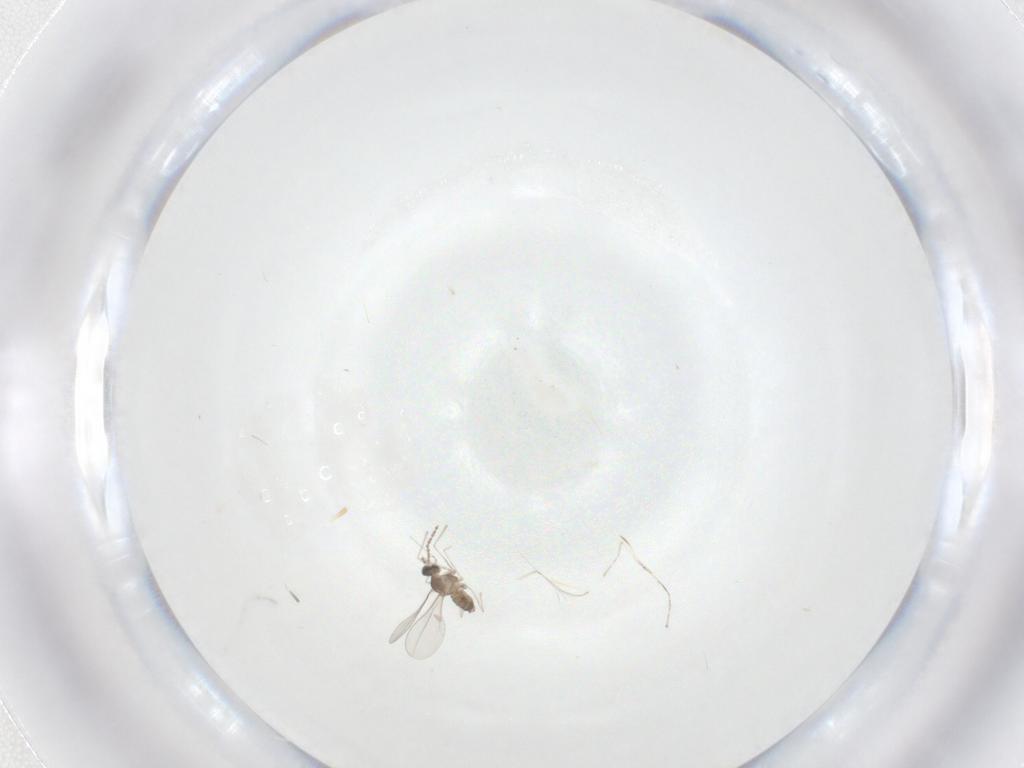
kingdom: Animalia
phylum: Arthropoda
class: Insecta
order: Diptera
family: Cecidomyiidae
